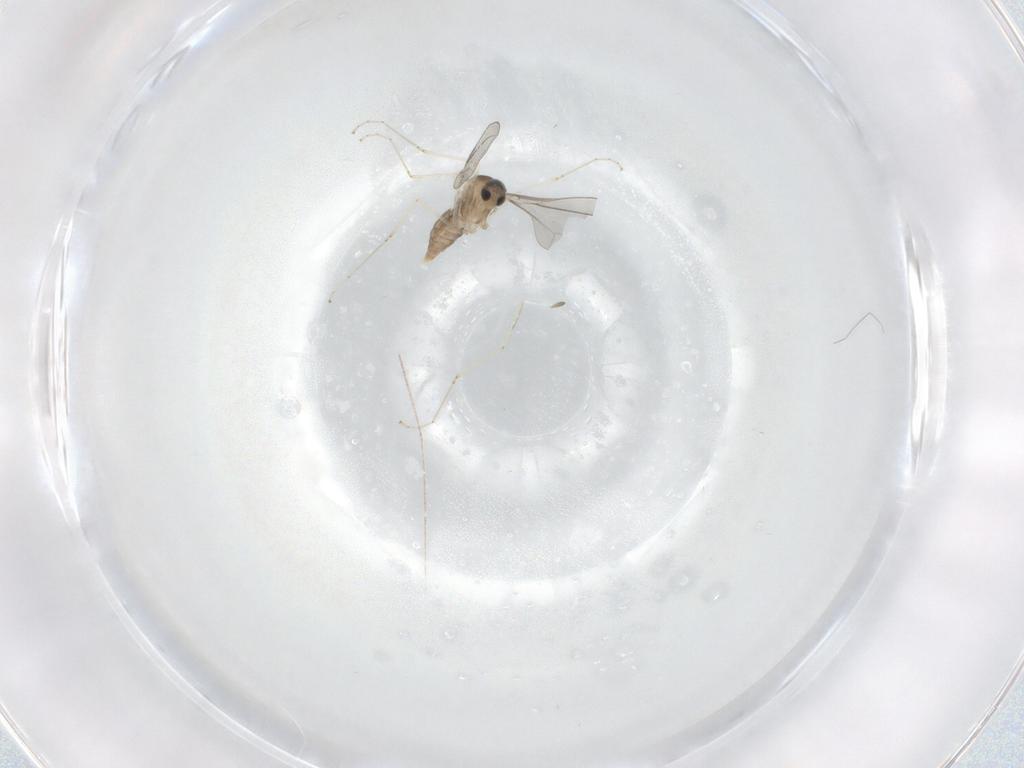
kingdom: Animalia
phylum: Arthropoda
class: Insecta
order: Diptera
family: Cecidomyiidae
